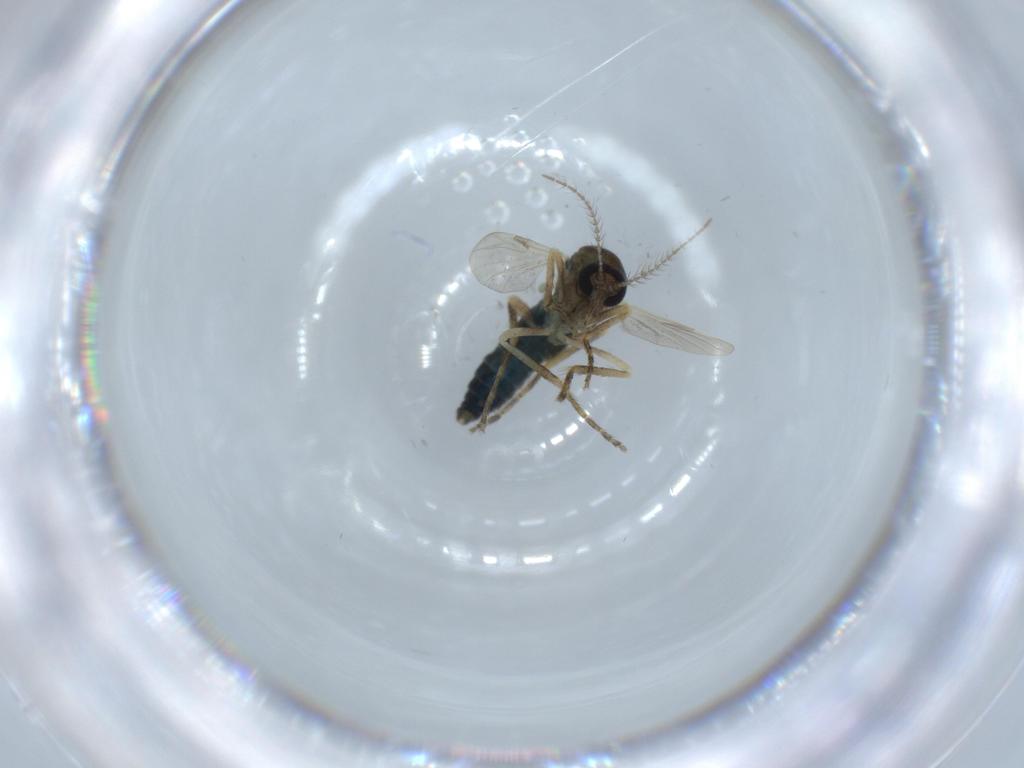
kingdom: Animalia
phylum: Arthropoda
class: Insecta
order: Diptera
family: Ceratopogonidae
